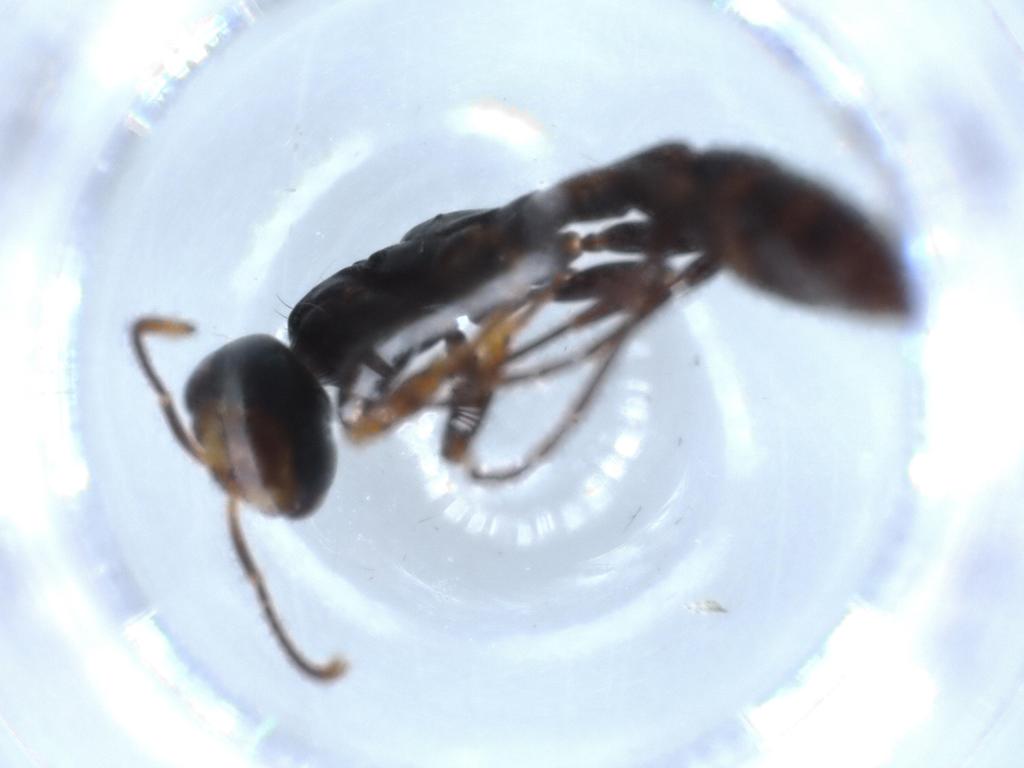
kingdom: Animalia
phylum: Arthropoda
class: Insecta
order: Hymenoptera
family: Formicidae
